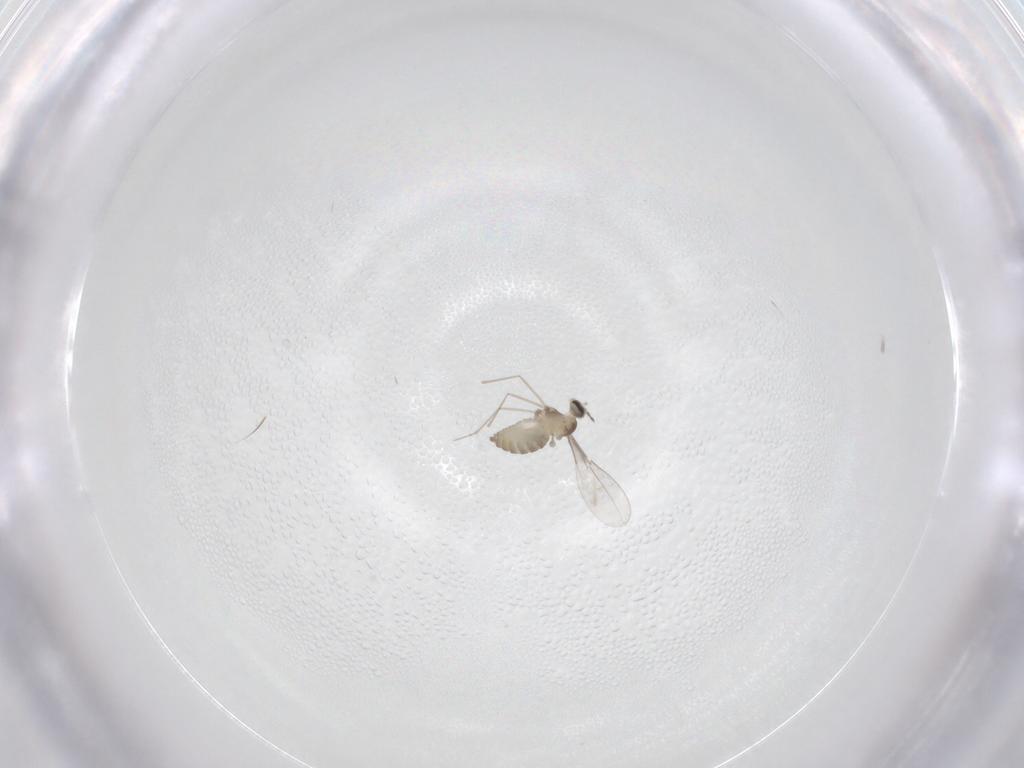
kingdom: Animalia
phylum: Arthropoda
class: Insecta
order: Diptera
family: Cecidomyiidae
